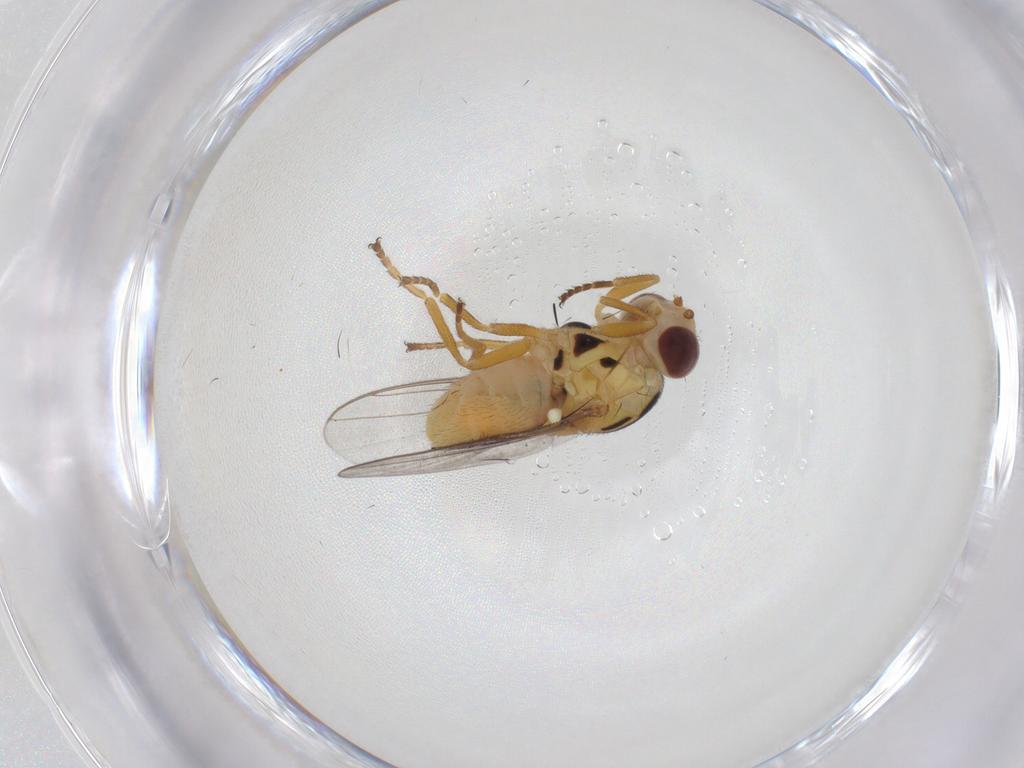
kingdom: Animalia
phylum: Arthropoda
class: Insecta
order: Diptera
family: Chloropidae
